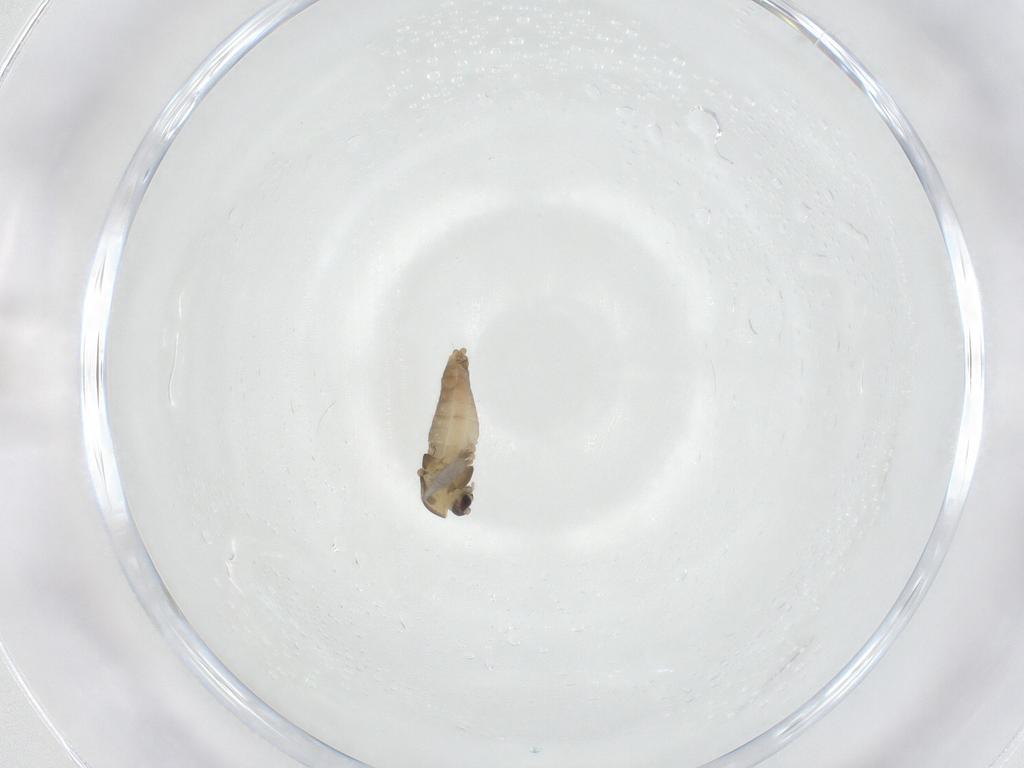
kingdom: Animalia
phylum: Arthropoda
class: Insecta
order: Diptera
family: Chironomidae
